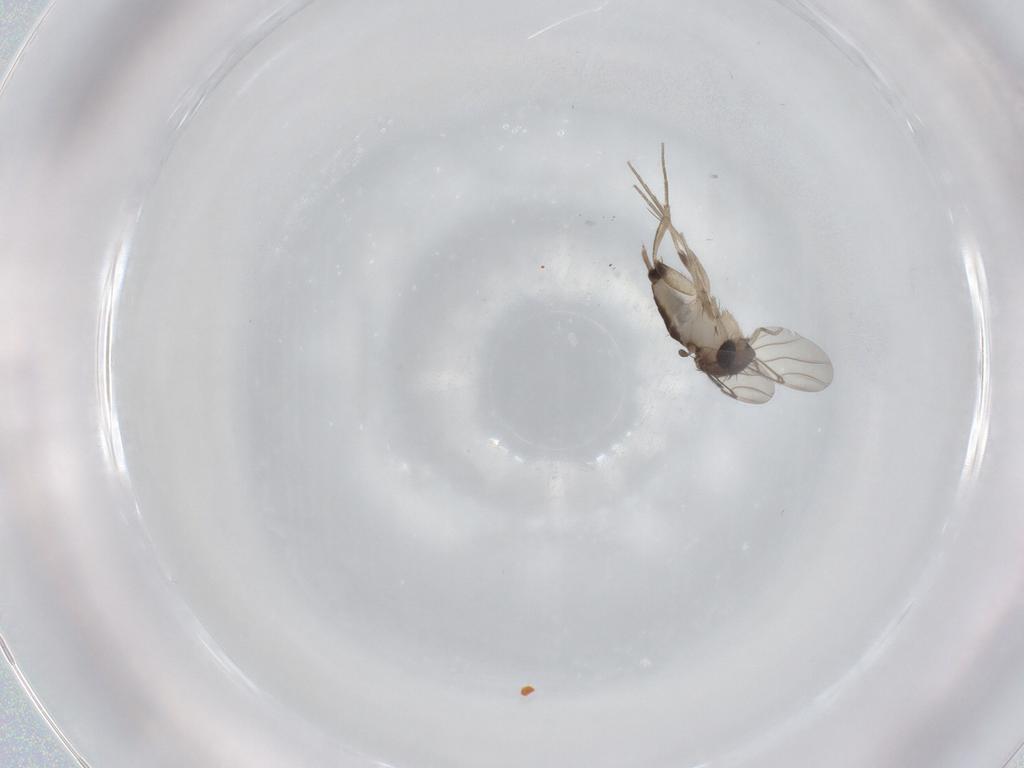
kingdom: Animalia
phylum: Arthropoda
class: Insecta
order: Diptera
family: Phoridae
